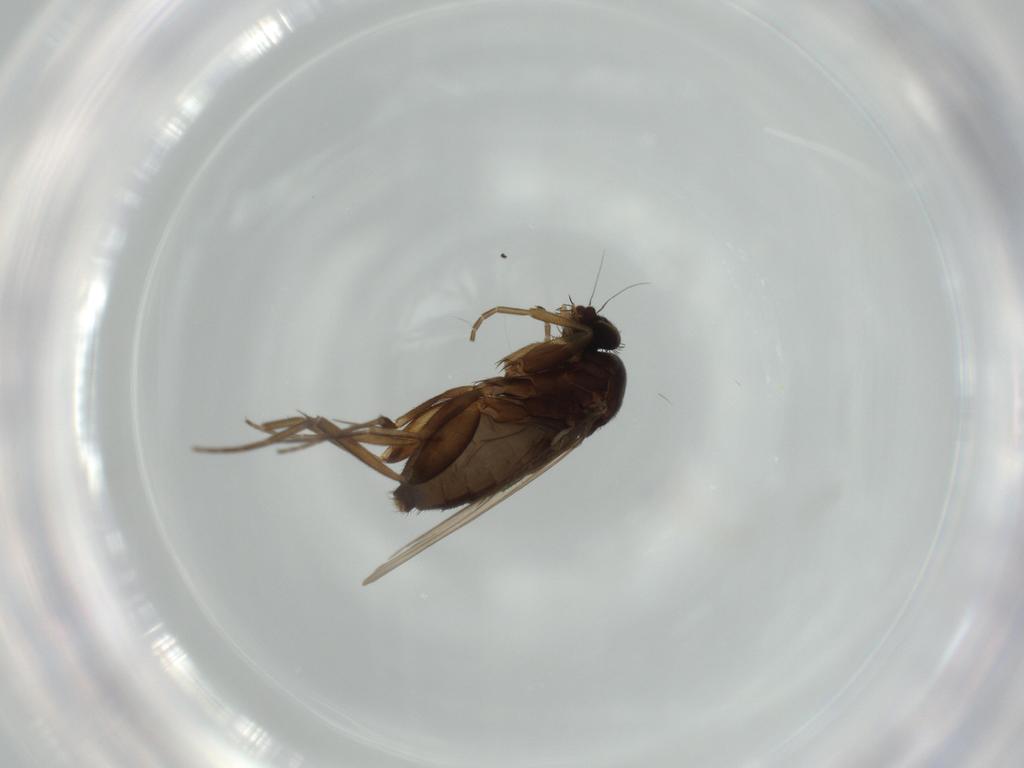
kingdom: Animalia
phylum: Arthropoda
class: Insecta
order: Diptera
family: Phoridae
